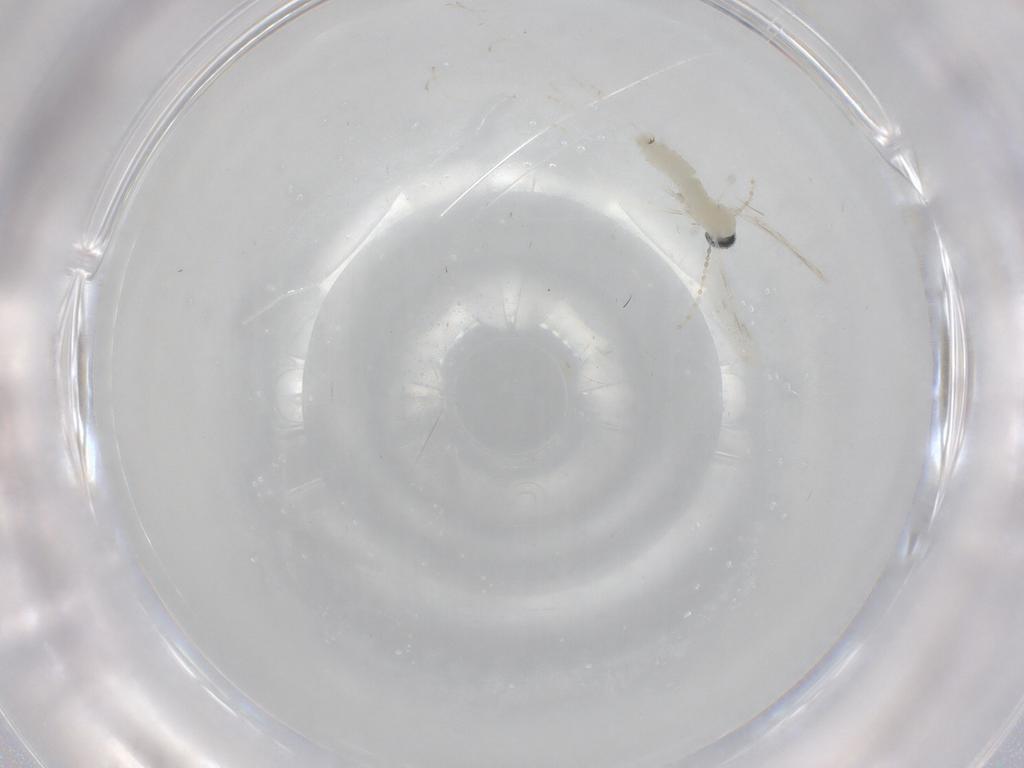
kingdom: Animalia
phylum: Arthropoda
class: Insecta
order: Diptera
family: Cecidomyiidae
